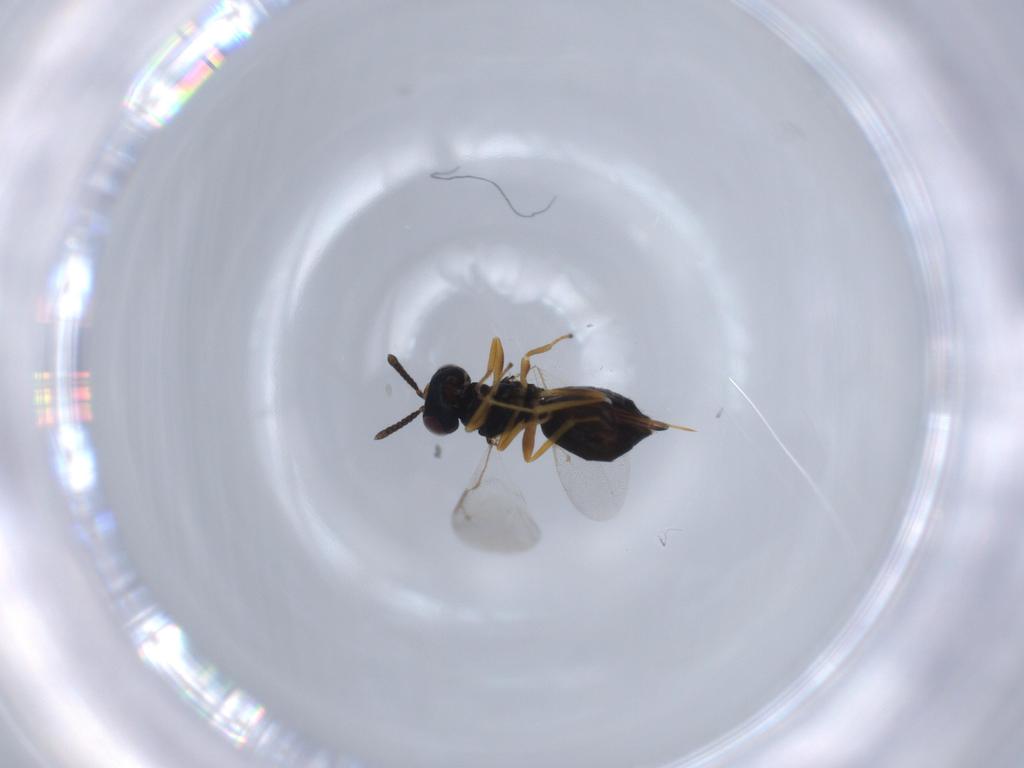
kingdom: Animalia
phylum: Arthropoda
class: Insecta
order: Hymenoptera
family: Pteromalidae
